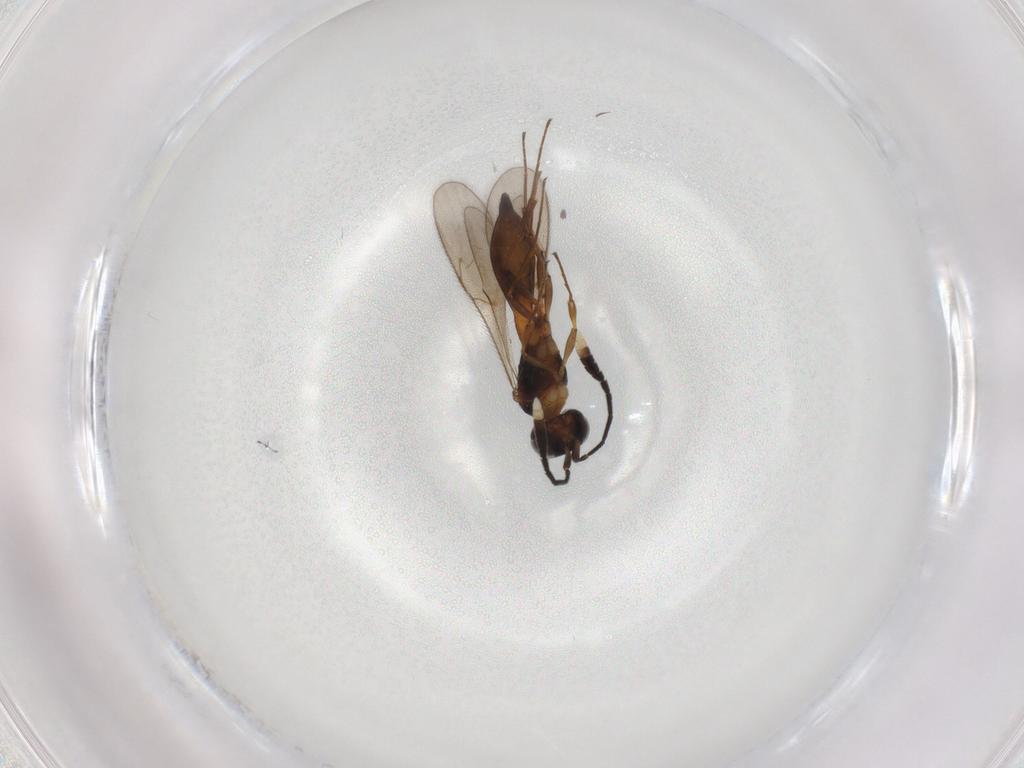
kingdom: Animalia
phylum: Arthropoda
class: Insecta
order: Hymenoptera
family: Scelionidae
